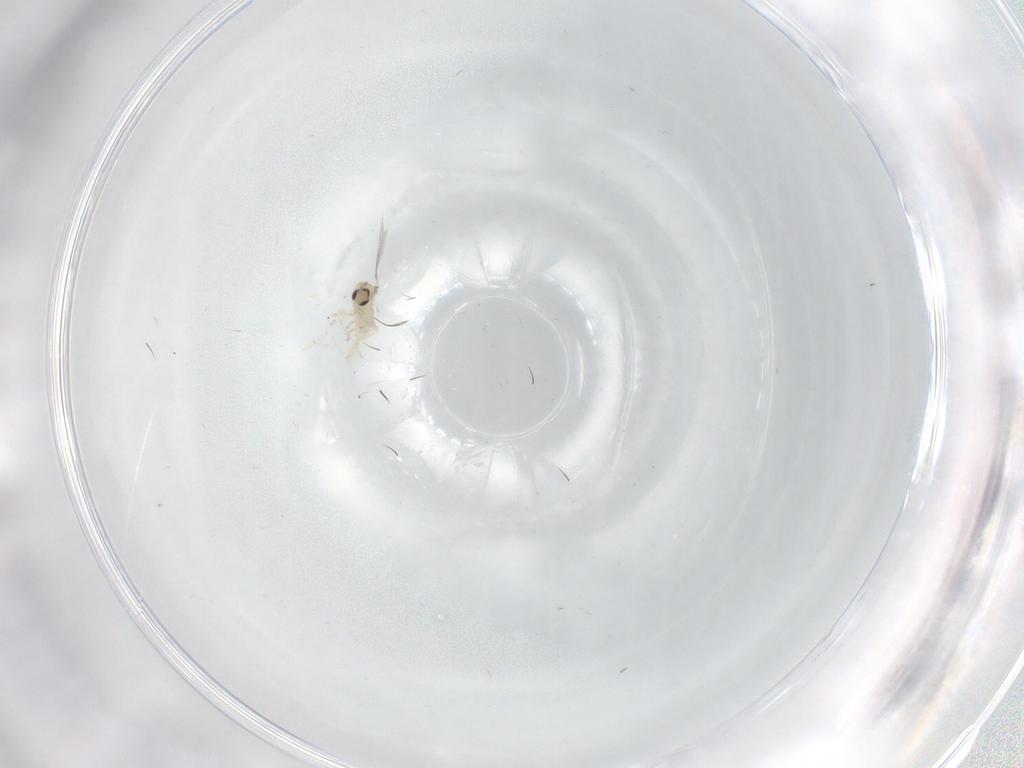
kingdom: Animalia
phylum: Arthropoda
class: Insecta
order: Diptera
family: Cecidomyiidae
